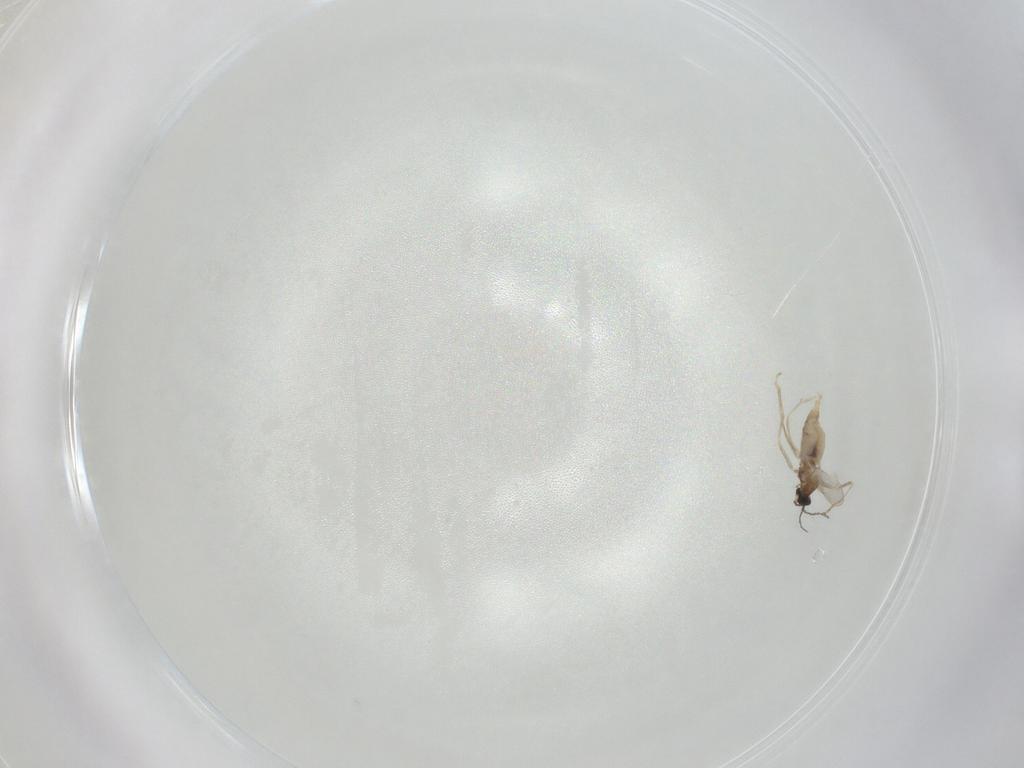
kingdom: Animalia
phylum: Arthropoda
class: Insecta
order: Diptera
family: Cecidomyiidae
